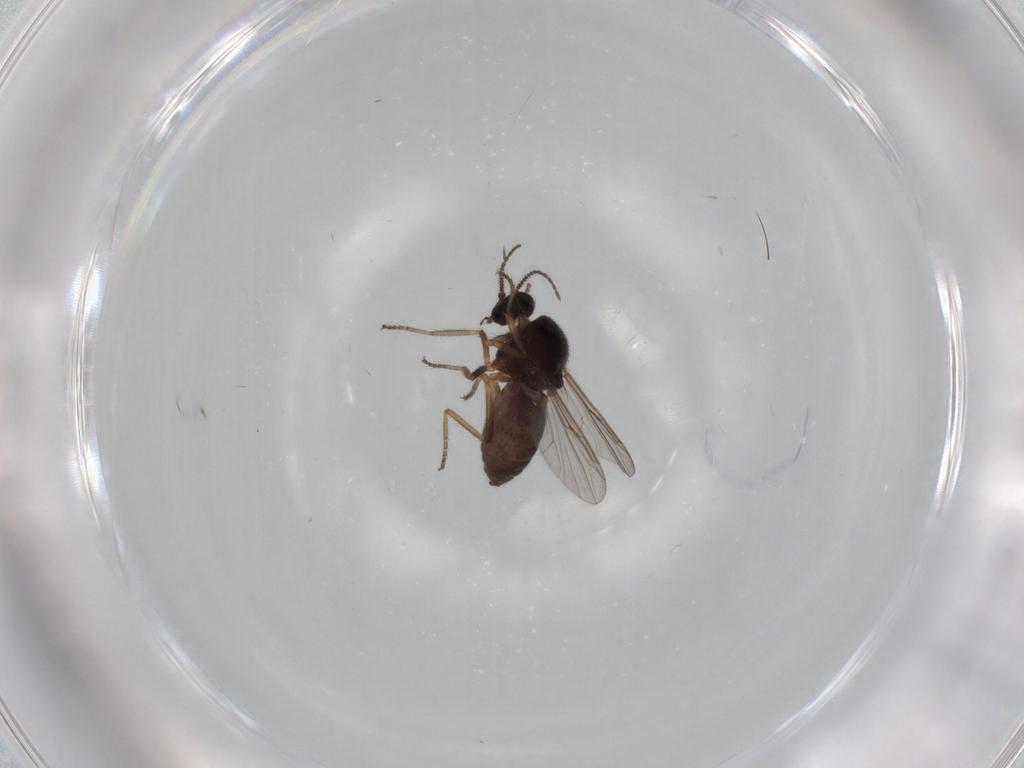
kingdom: Animalia
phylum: Arthropoda
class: Insecta
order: Diptera
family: Ceratopogonidae
